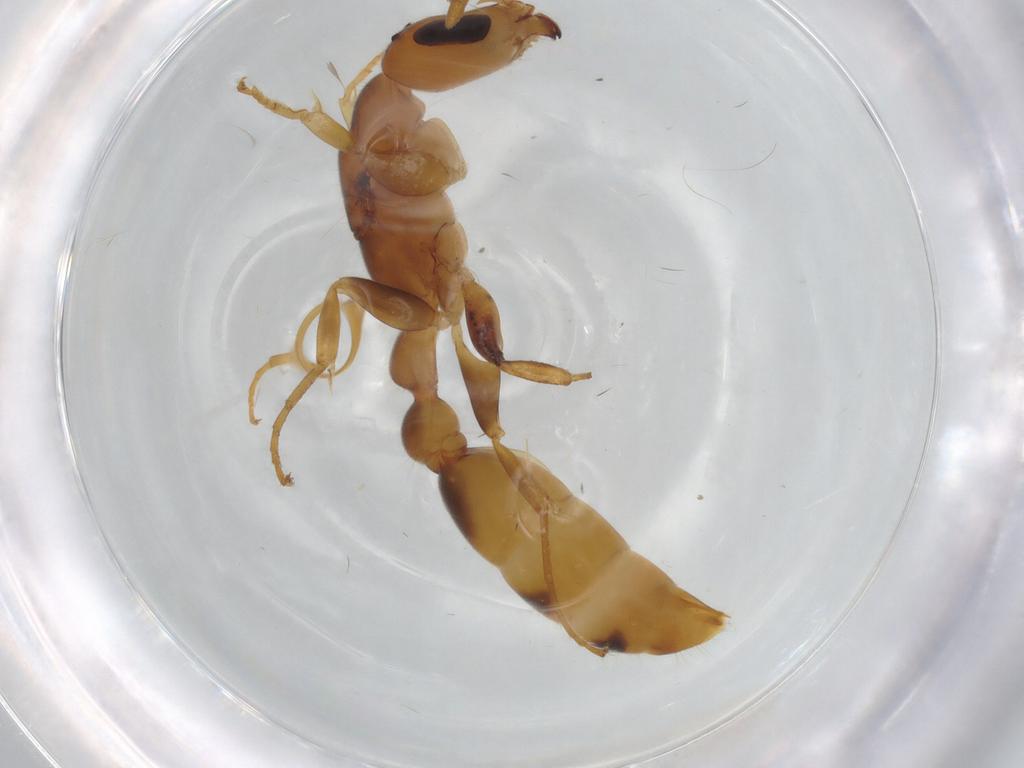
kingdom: Animalia
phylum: Arthropoda
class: Insecta
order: Hymenoptera
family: Formicidae
